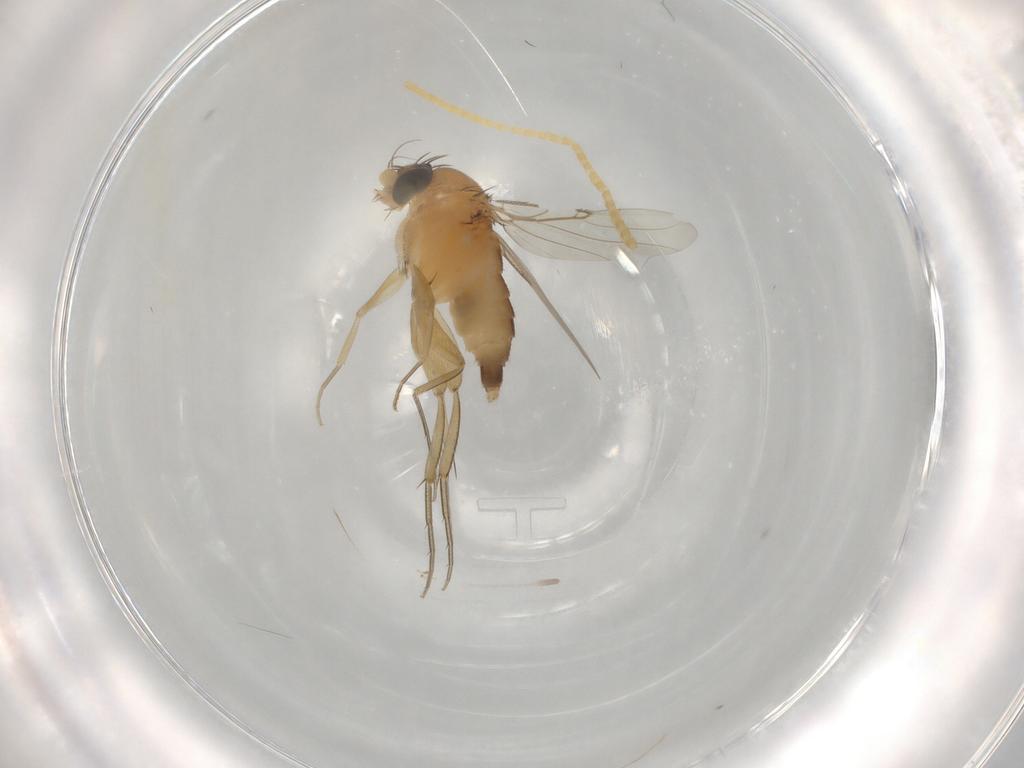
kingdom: Animalia
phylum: Arthropoda
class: Insecta
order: Diptera
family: Phoridae
